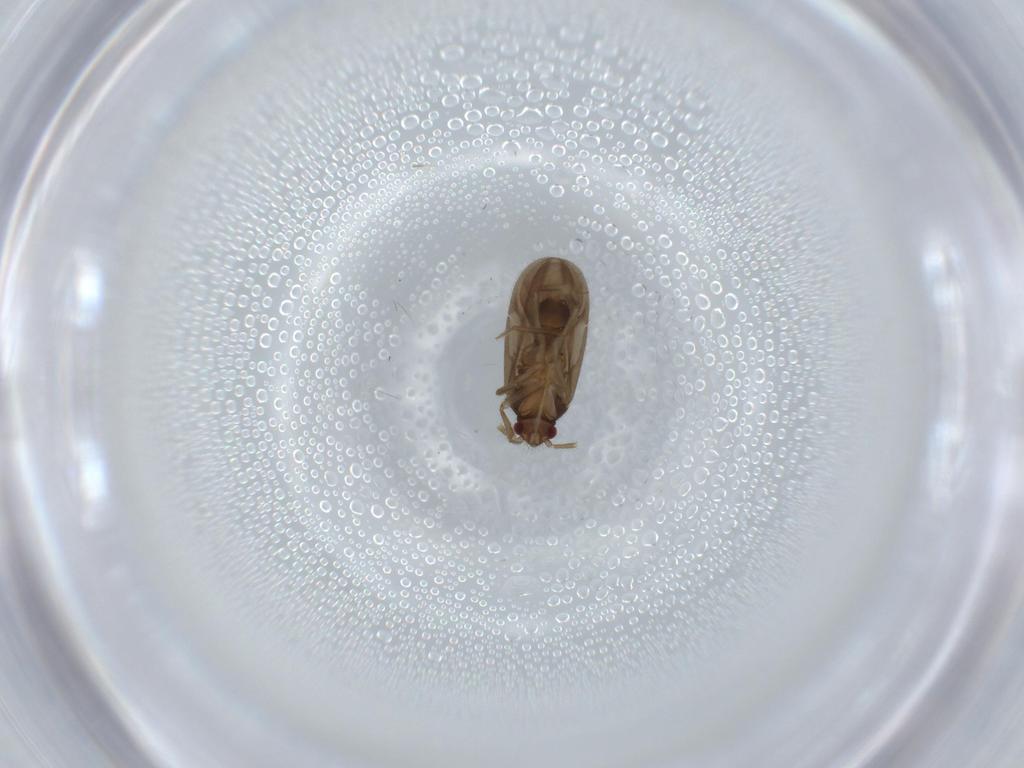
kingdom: Animalia
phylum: Arthropoda
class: Insecta
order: Hemiptera
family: Ceratocombidae
